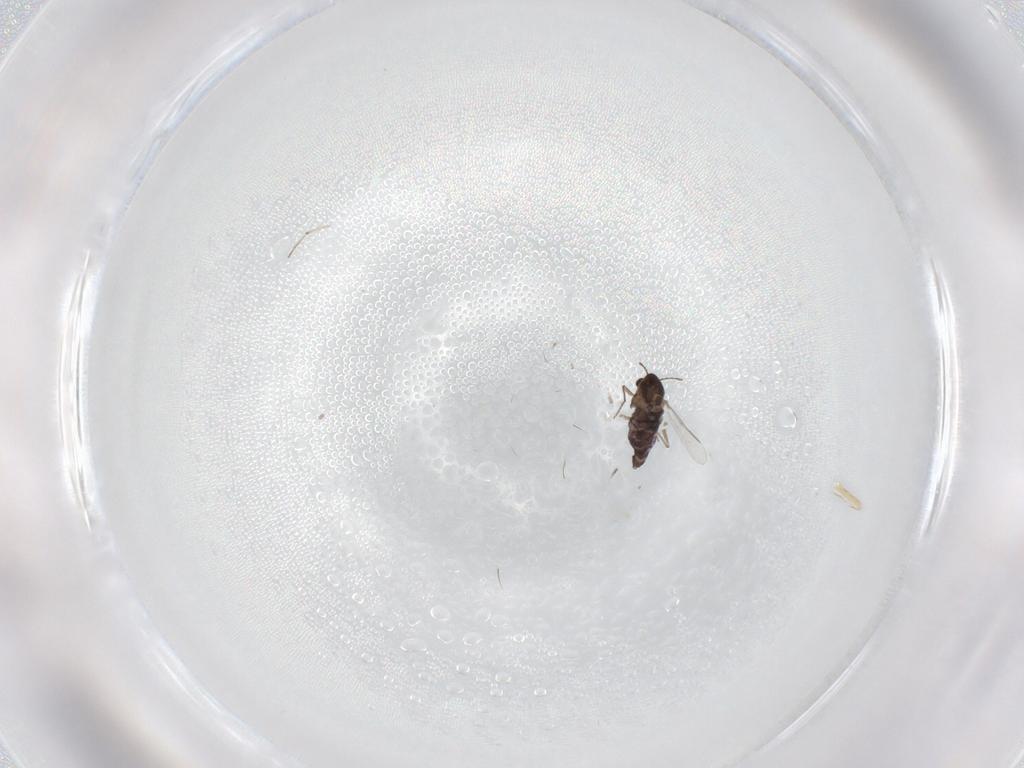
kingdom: Animalia
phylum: Arthropoda
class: Insecta
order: Diptera
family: Chironomidae
